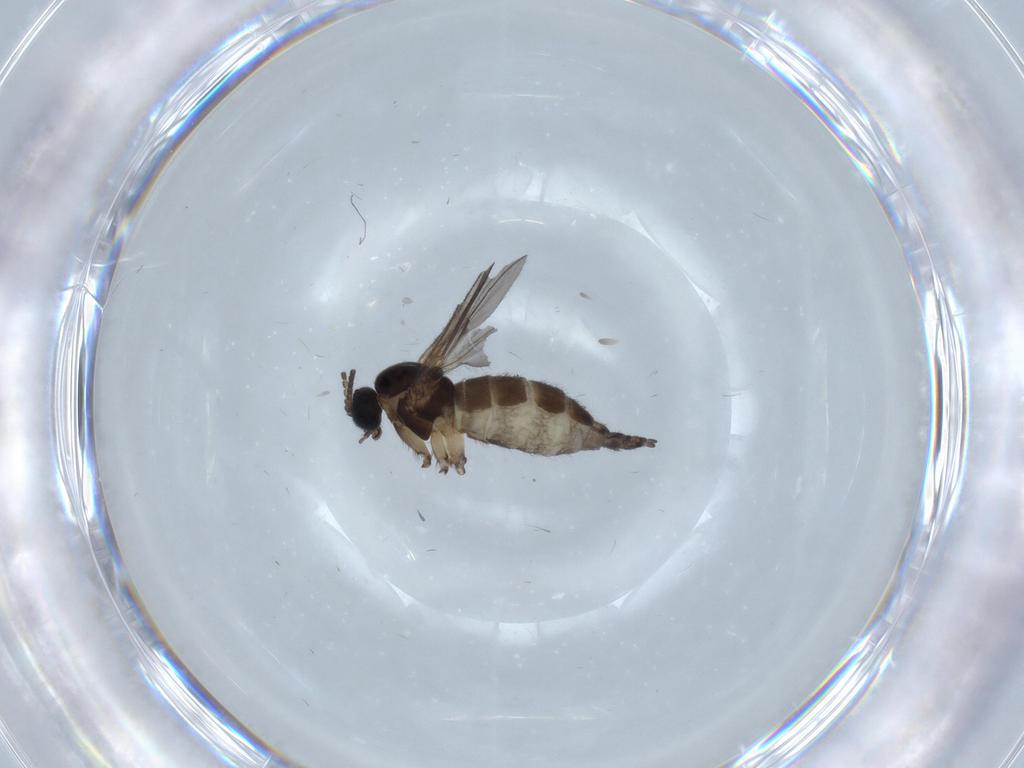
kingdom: Animalia
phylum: Arthropoda
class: Insecta
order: Diptera
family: Sciaridae
